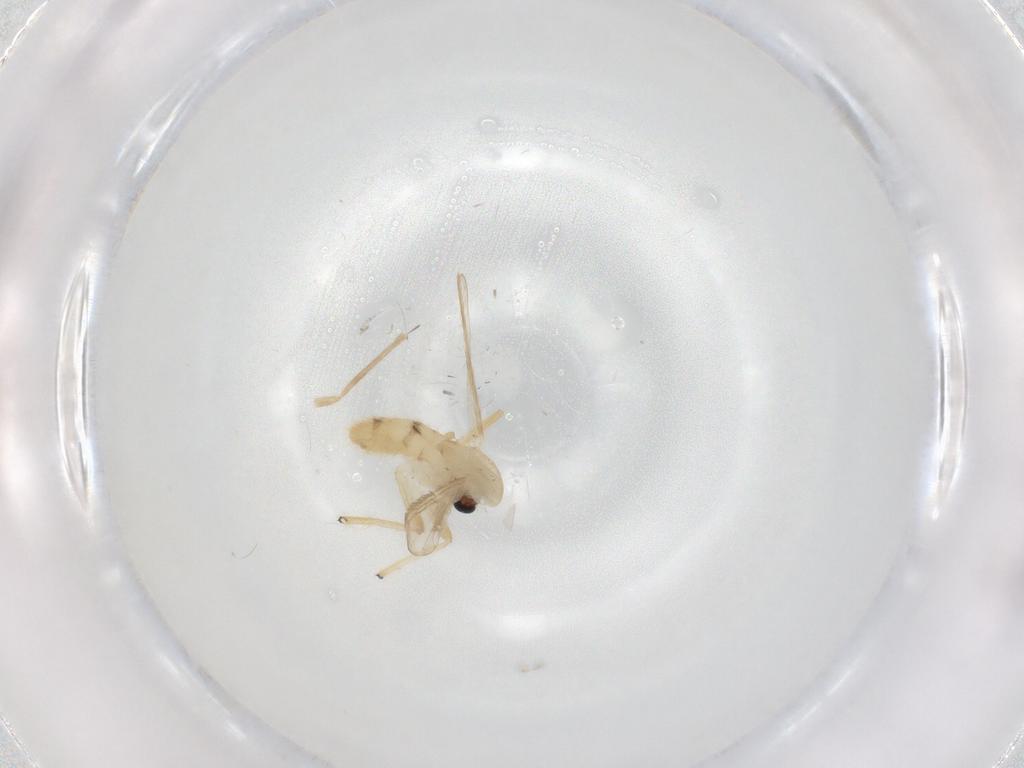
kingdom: Animalia
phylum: Arthropoda
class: Insecta
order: Diptera
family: Chironomidae
